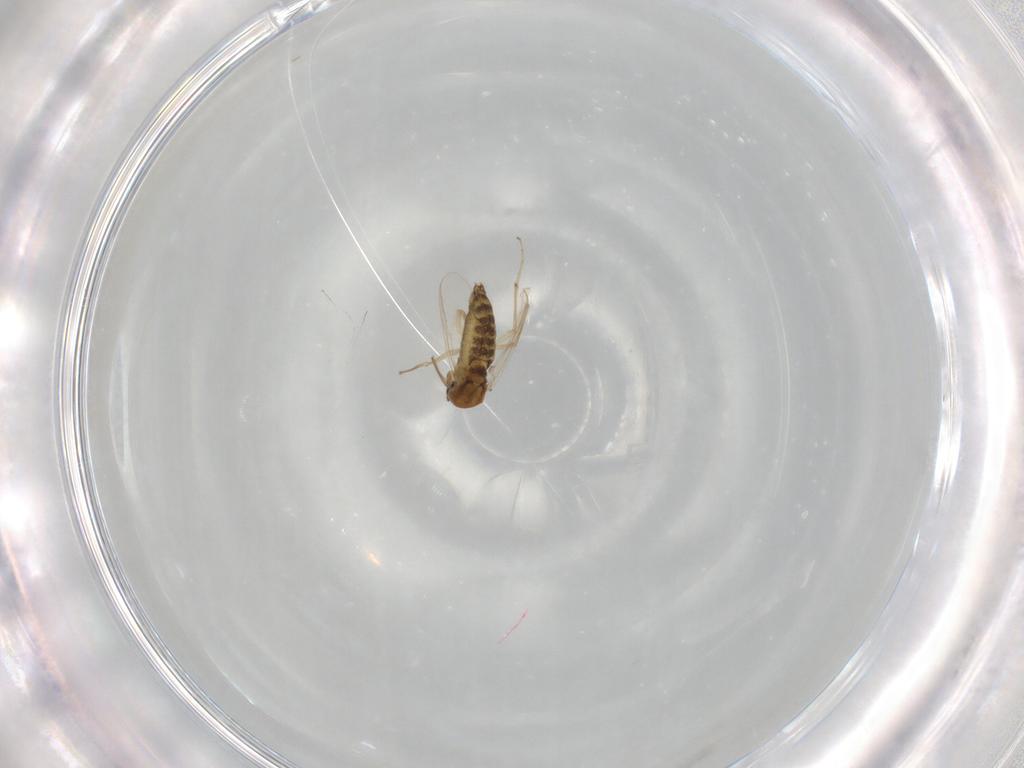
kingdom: Animalia
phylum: Arthropoda
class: Insecta
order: Diptera
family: Chironomidae
